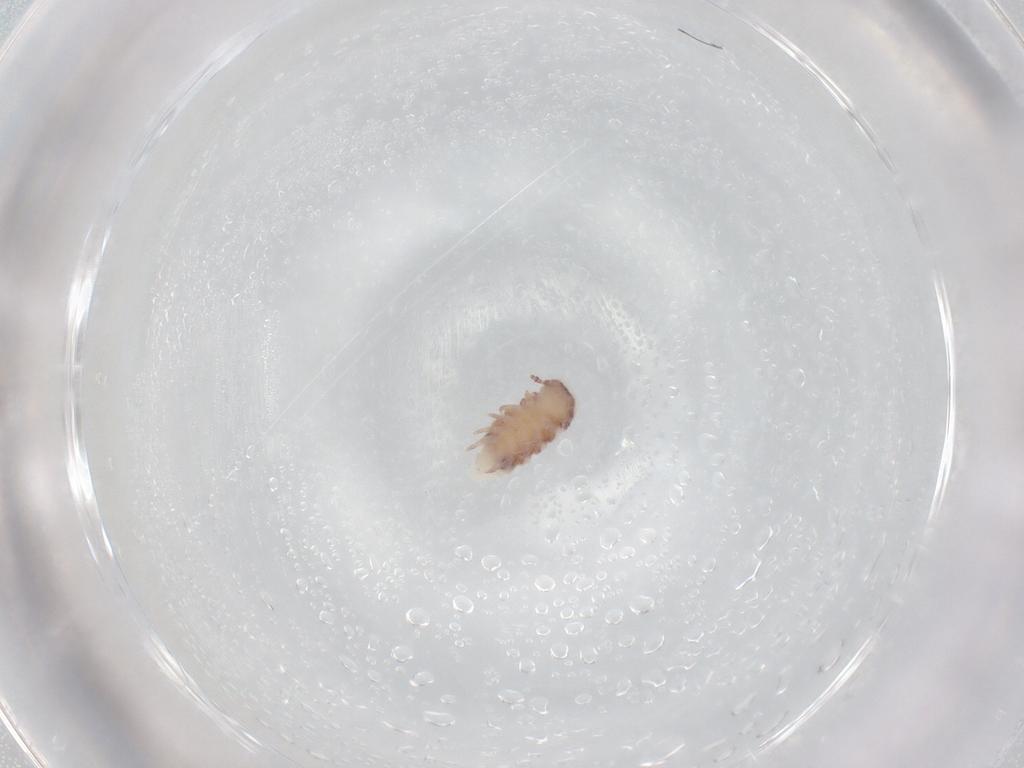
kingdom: Animalia
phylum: Arthropoda
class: Diplopoda
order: Polyxenida
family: Polyxenidae
